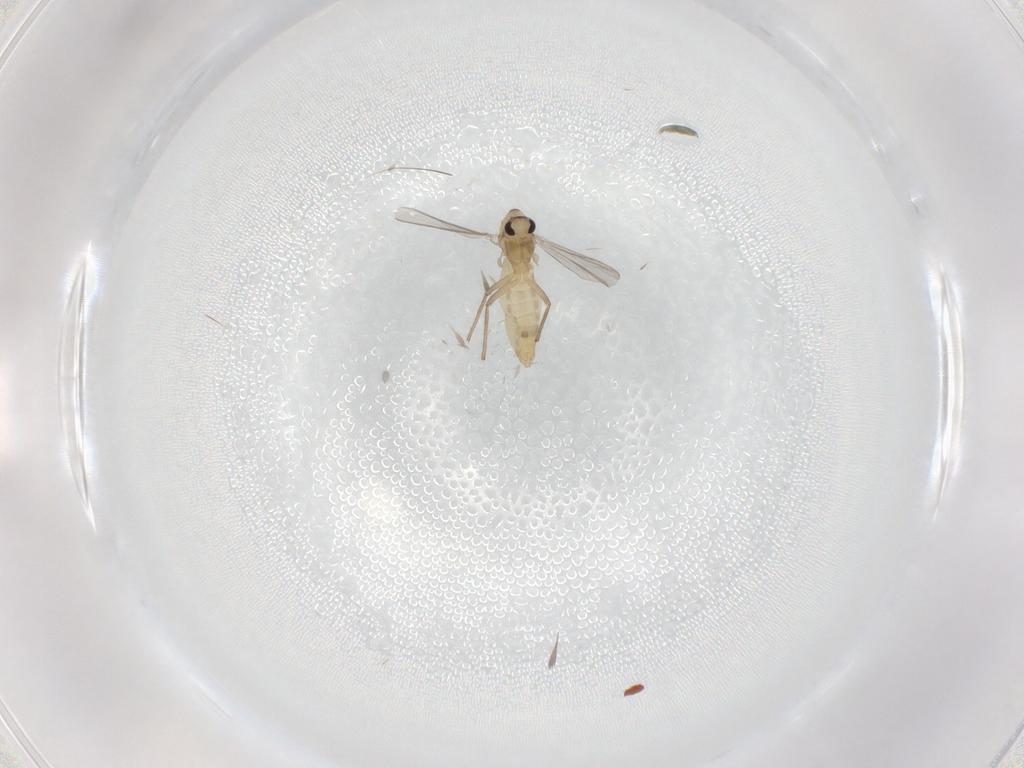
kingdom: Animalia
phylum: Arthropoda
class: Insecta
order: Diptera
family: Chironomidae
